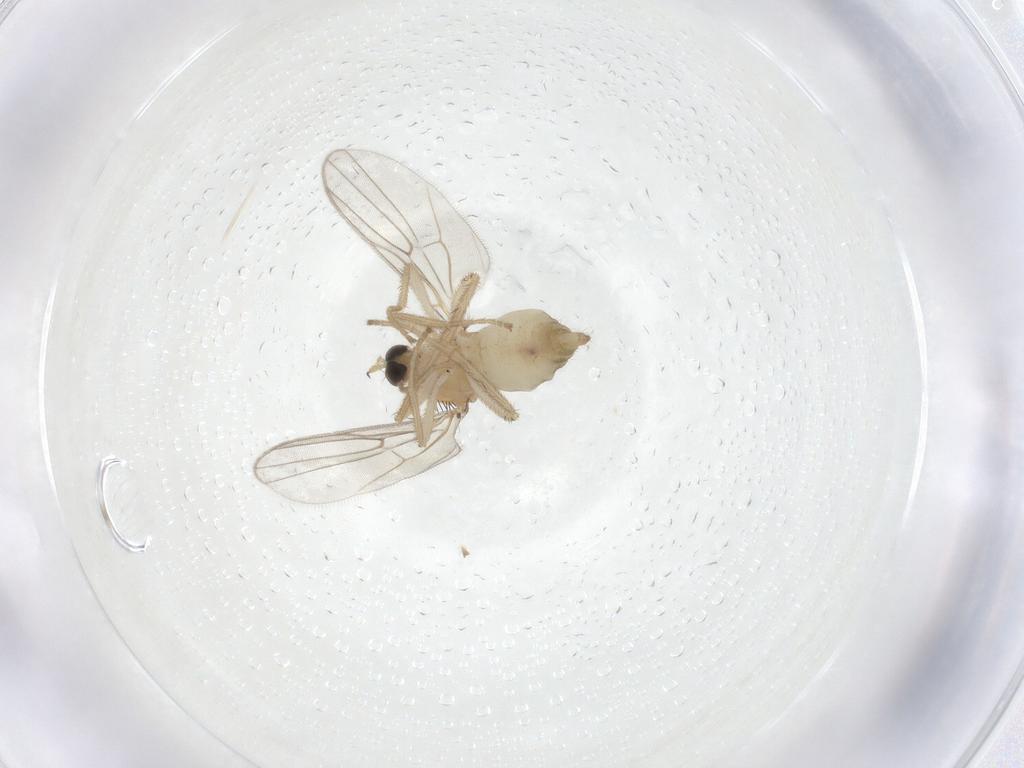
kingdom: Animalia
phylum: Arthropoda
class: Insecta
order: Diptera
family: Hybotidae
